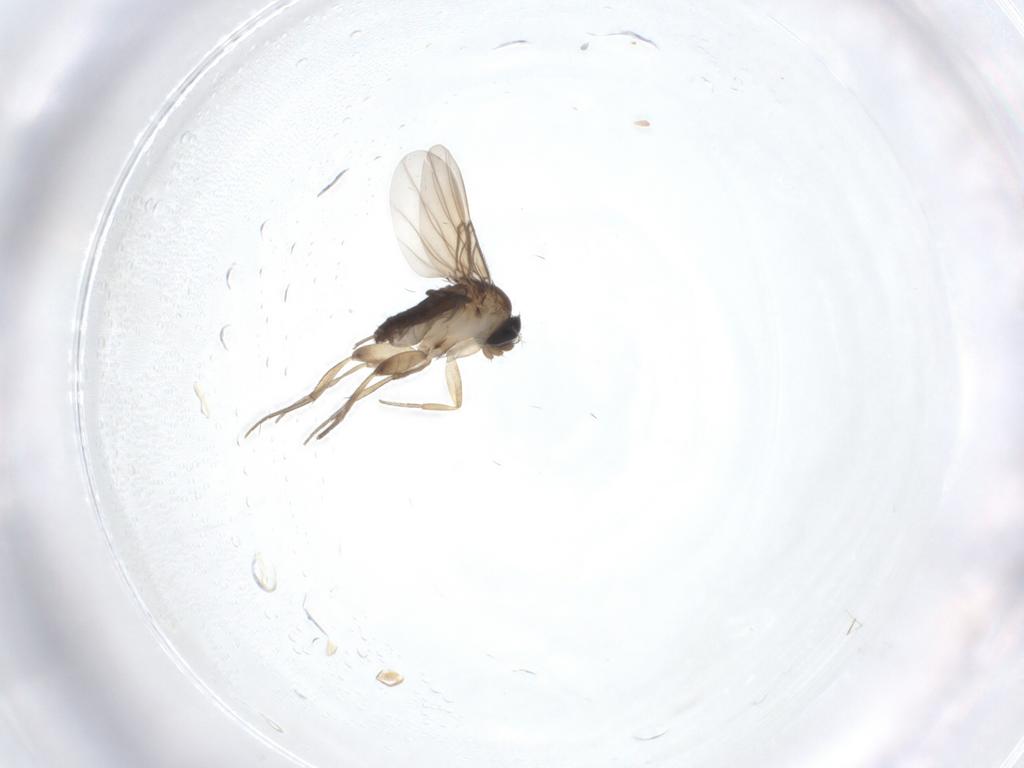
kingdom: Animalia
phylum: Arthropoda
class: Insecta
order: Diptera
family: Phoridae
